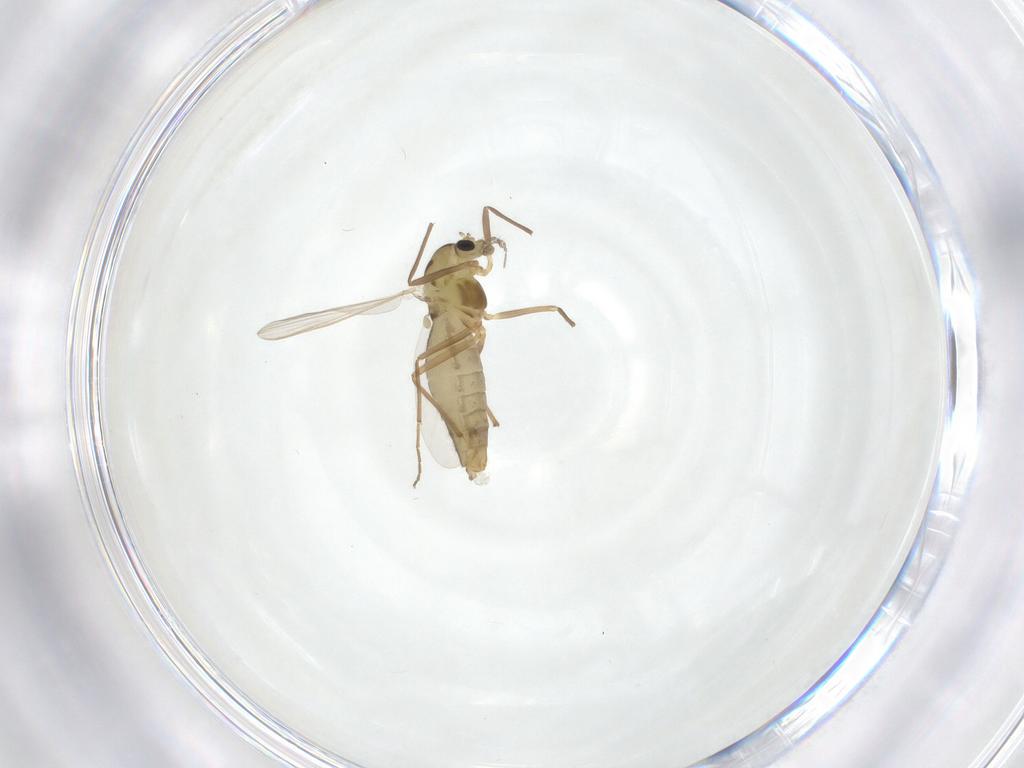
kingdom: Animalia
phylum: Arthropoda
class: Insecta
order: Diptera
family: Chironomidae
